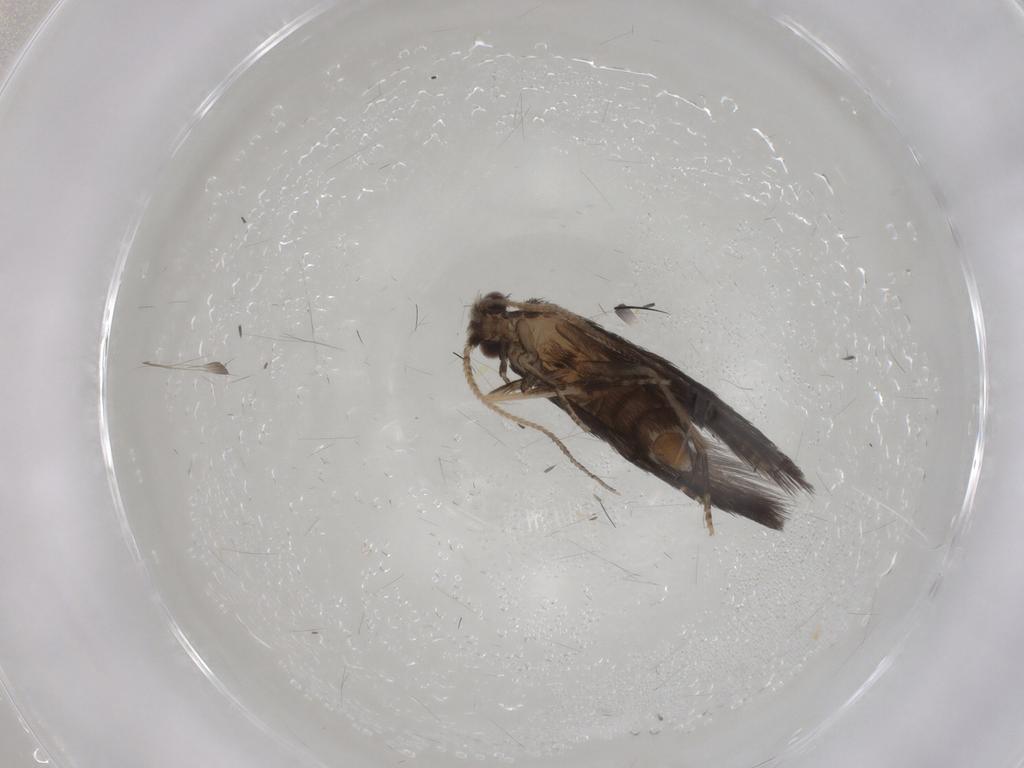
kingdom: Animalia
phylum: Arthropoda
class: Insecta
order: Trichoptera
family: Hydroptilidae
